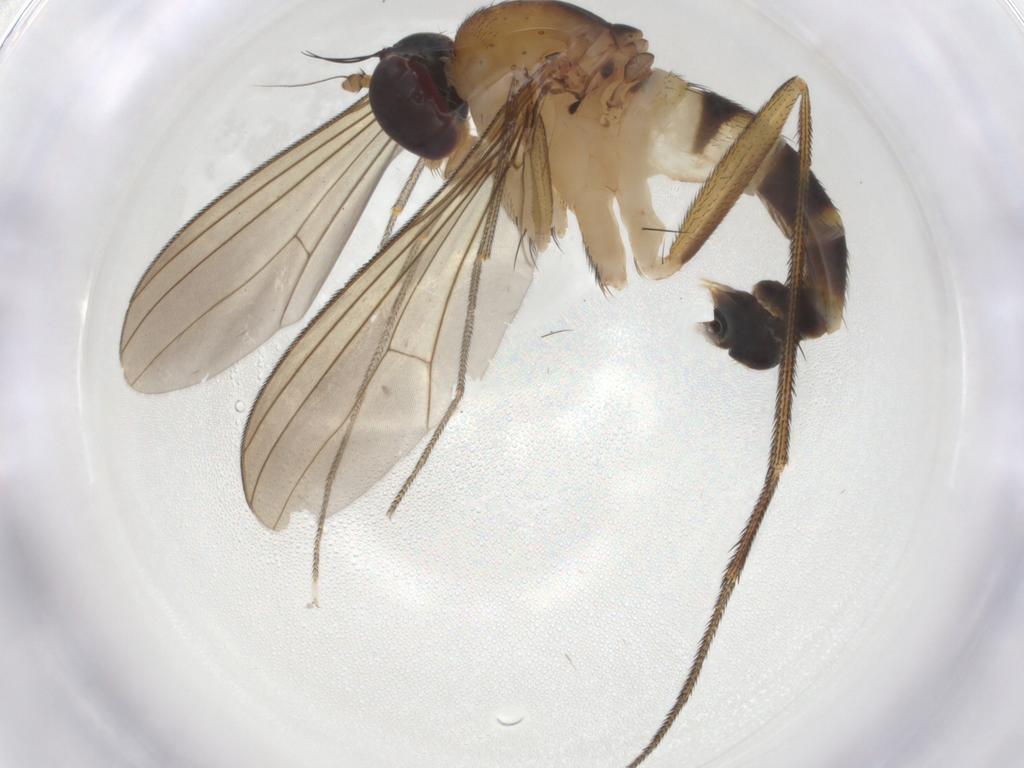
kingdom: Animalia
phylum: Arthropoda
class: Insecta
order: Diptera
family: Dolichopodidae
